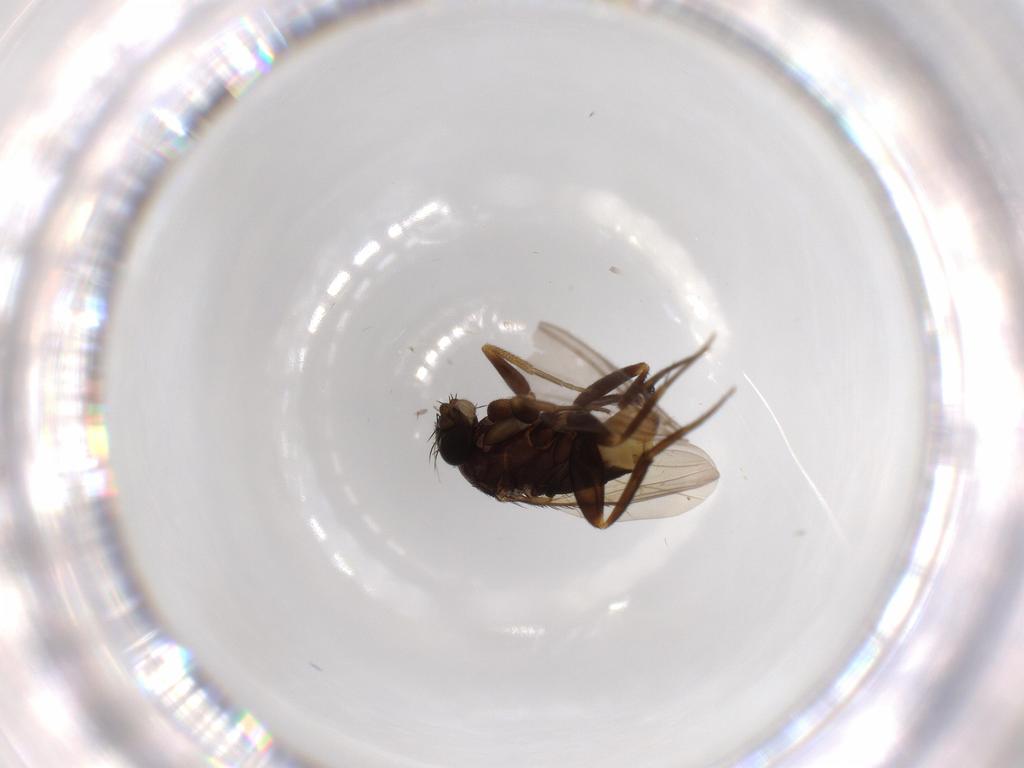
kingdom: Animalia
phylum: Arthropoda
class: Insecta
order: Diptera
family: Phoridae
